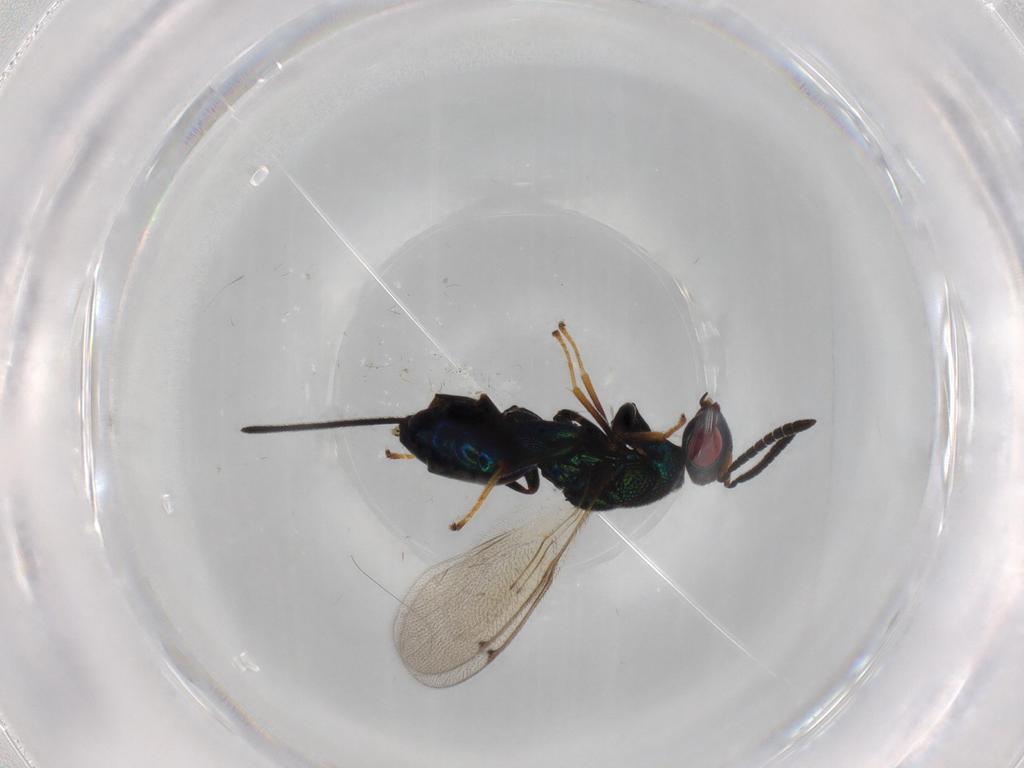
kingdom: Animalia
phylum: Arthropoda
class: Insecta
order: Hymenoptera
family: Torymidae
